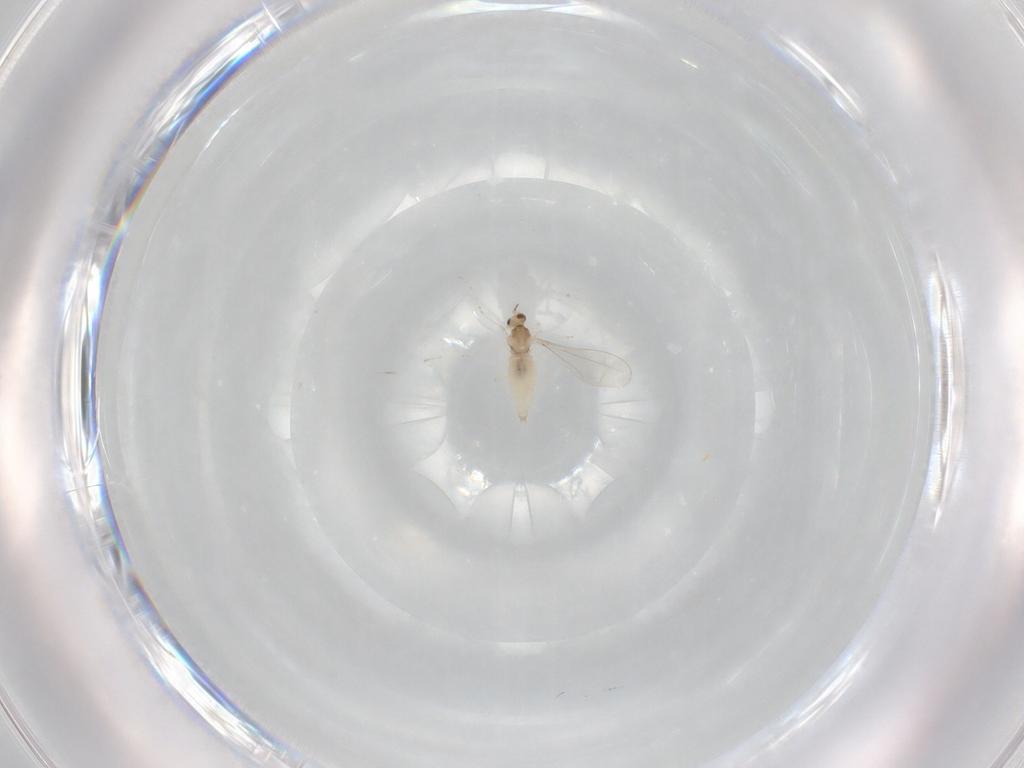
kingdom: Animalia
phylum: Arthropoda
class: Insecta
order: Diptera
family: Cecidomyiidae
